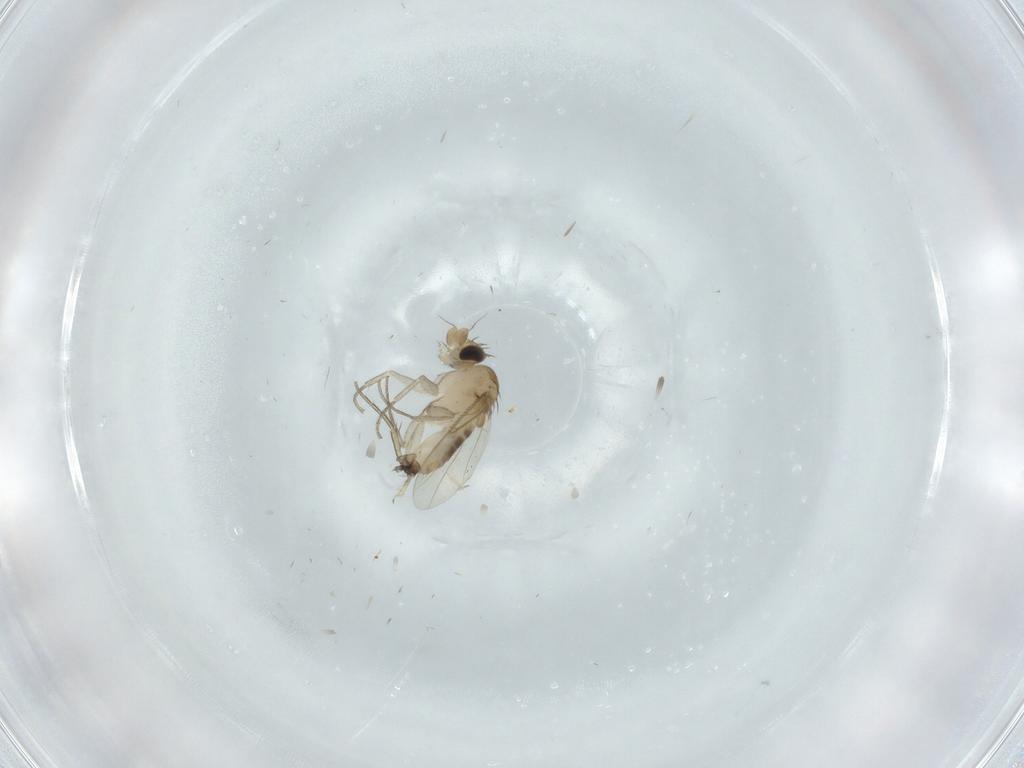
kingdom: Animalia
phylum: Arthropoda
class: Insecta
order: Diptera
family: Phoridae
